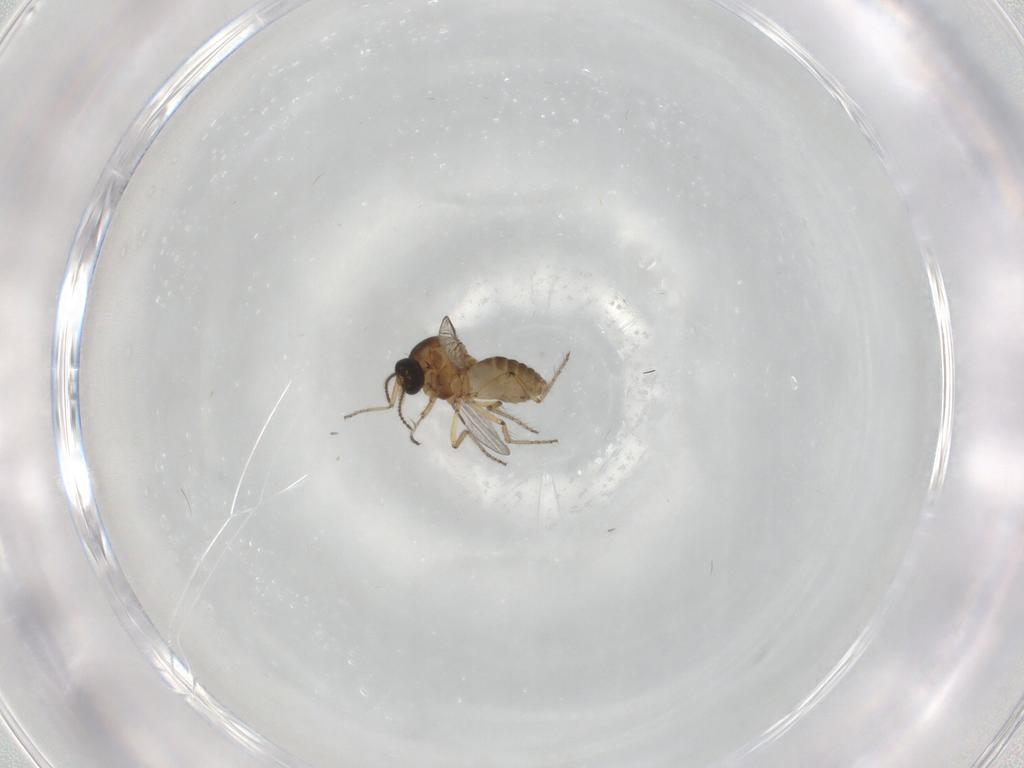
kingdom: Animalia
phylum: Arthropoda
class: Insecta
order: Diptera
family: Ceratopogonidae
